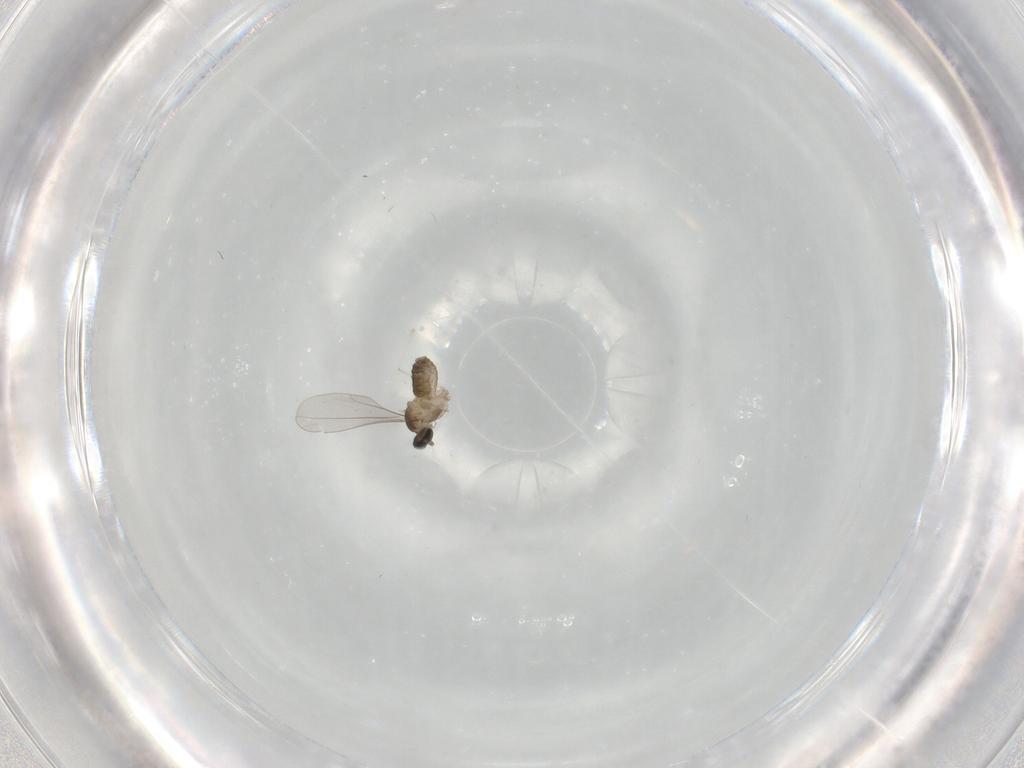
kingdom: Animalia
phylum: Arthropoda
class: Insecta
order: Diptera
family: Cecidomyiidae
